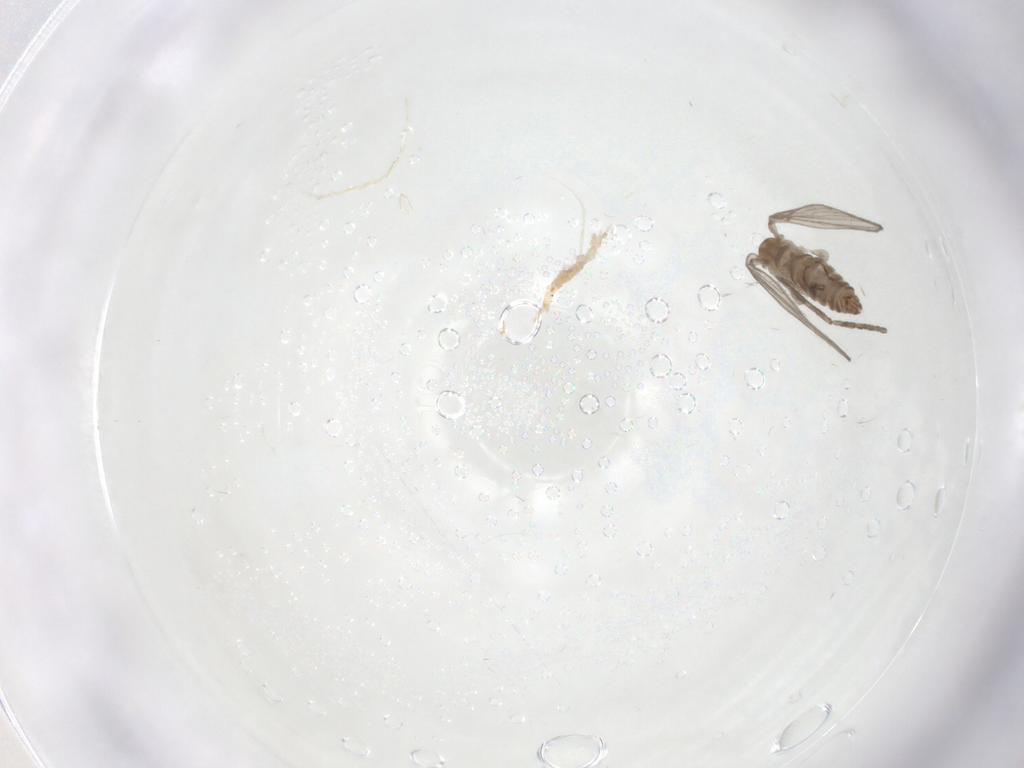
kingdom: Animalia
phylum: Arthropoda
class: Insecta
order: Diptera
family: Psychodidae
